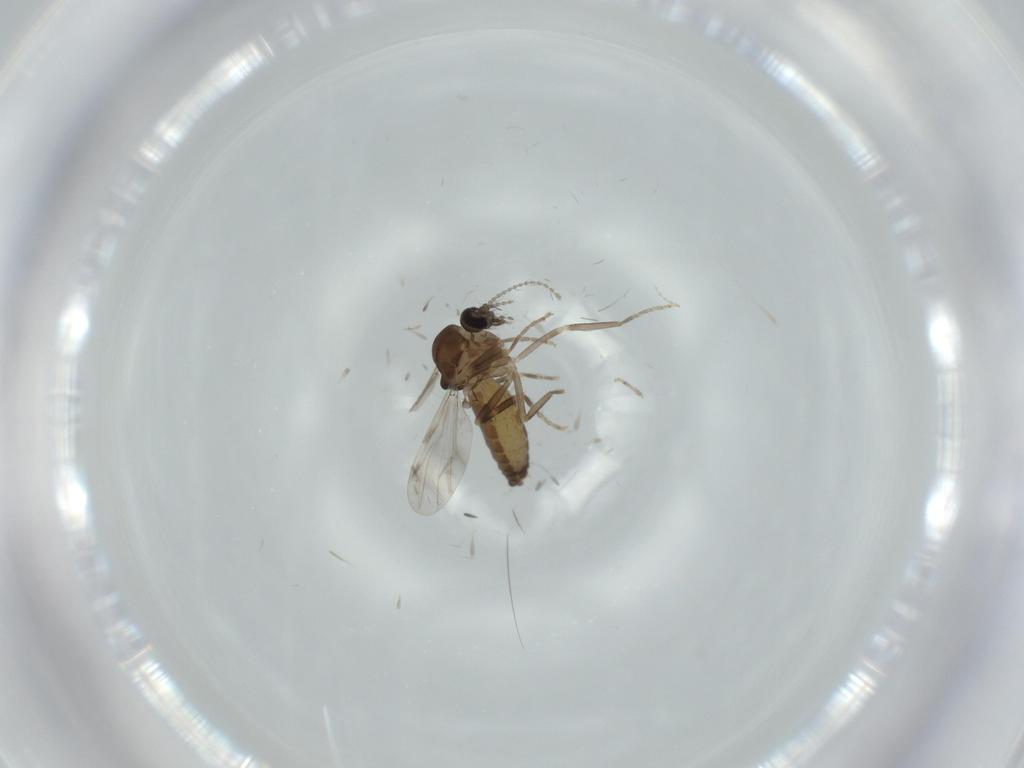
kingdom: Animalia
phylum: Arthropoda
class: Insecta
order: Diptera
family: Ceratopogonidae
